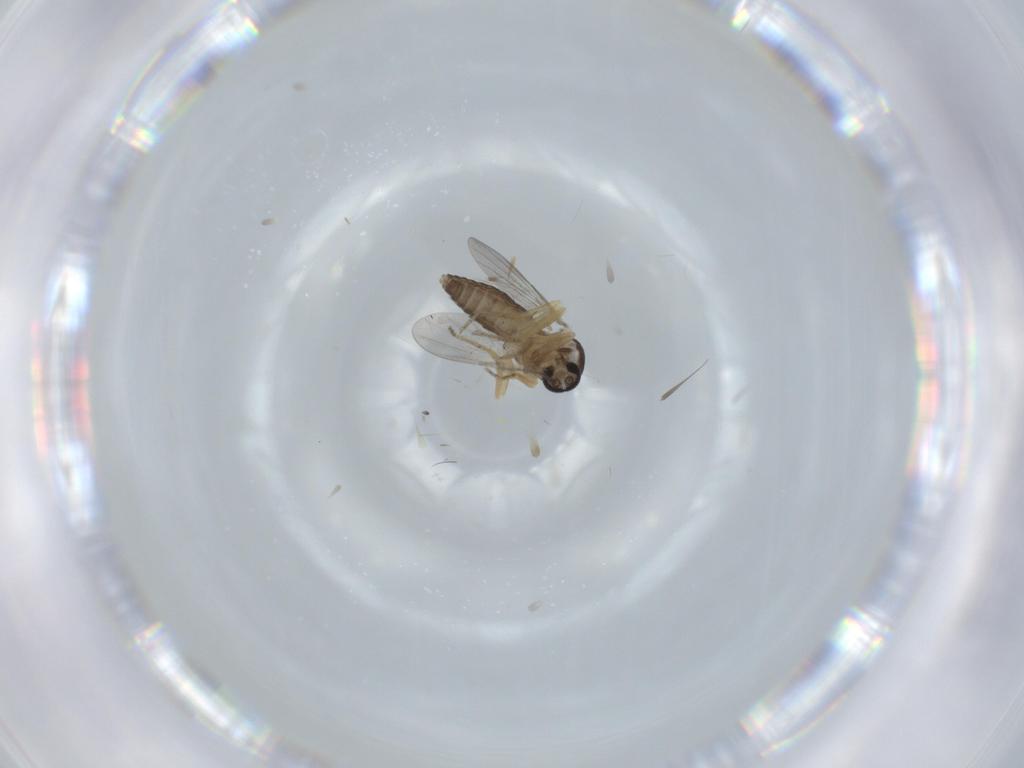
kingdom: Animalia
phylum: Arthropoda
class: Insecta
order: Diptera
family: Ceratopogonidae
